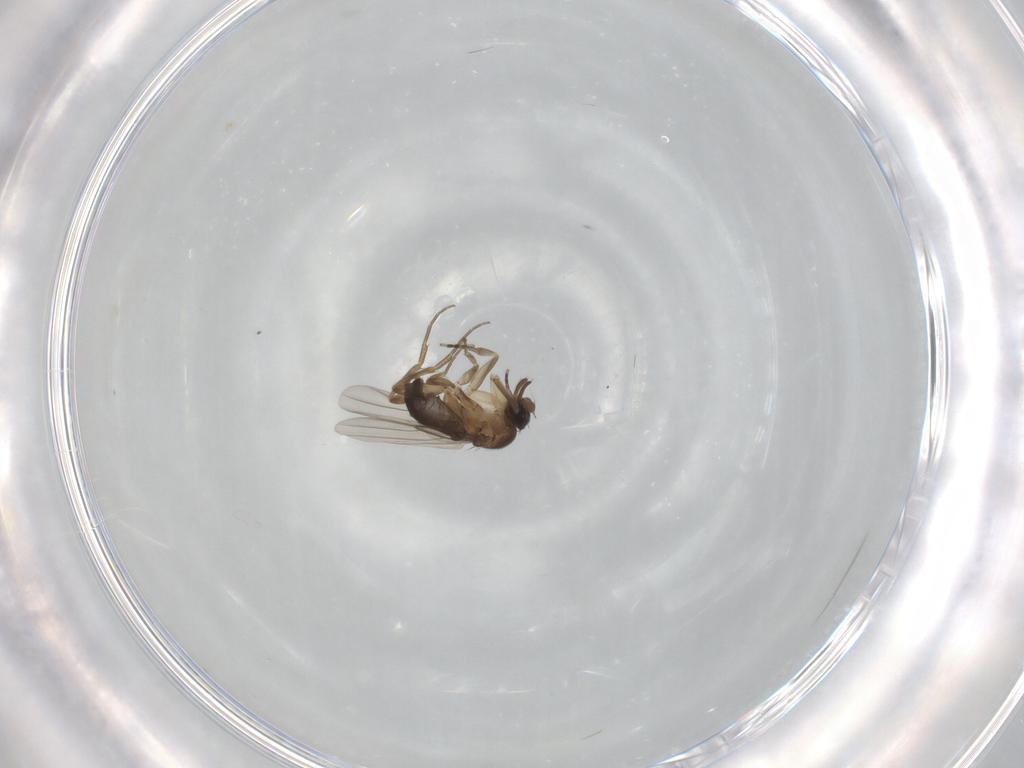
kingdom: Animalia
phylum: Arthropoda
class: Insecta
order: Diptera
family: Phoridae
